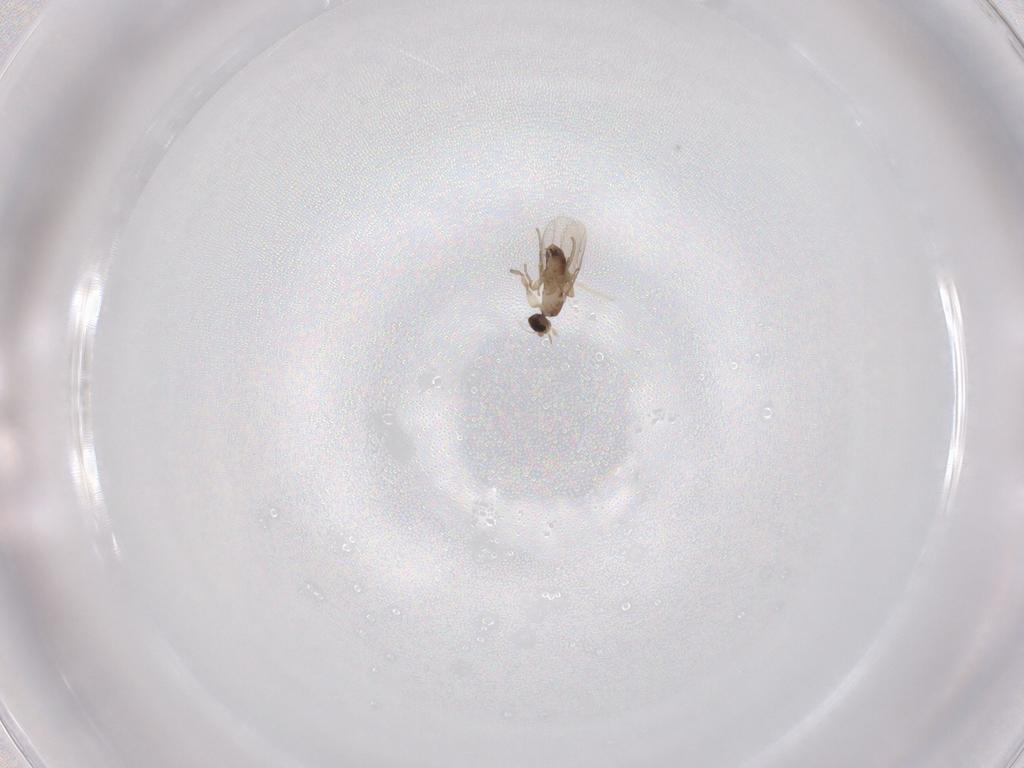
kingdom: Animalia
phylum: Arthropoda
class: Insecta
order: Diptera
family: Phoridae
